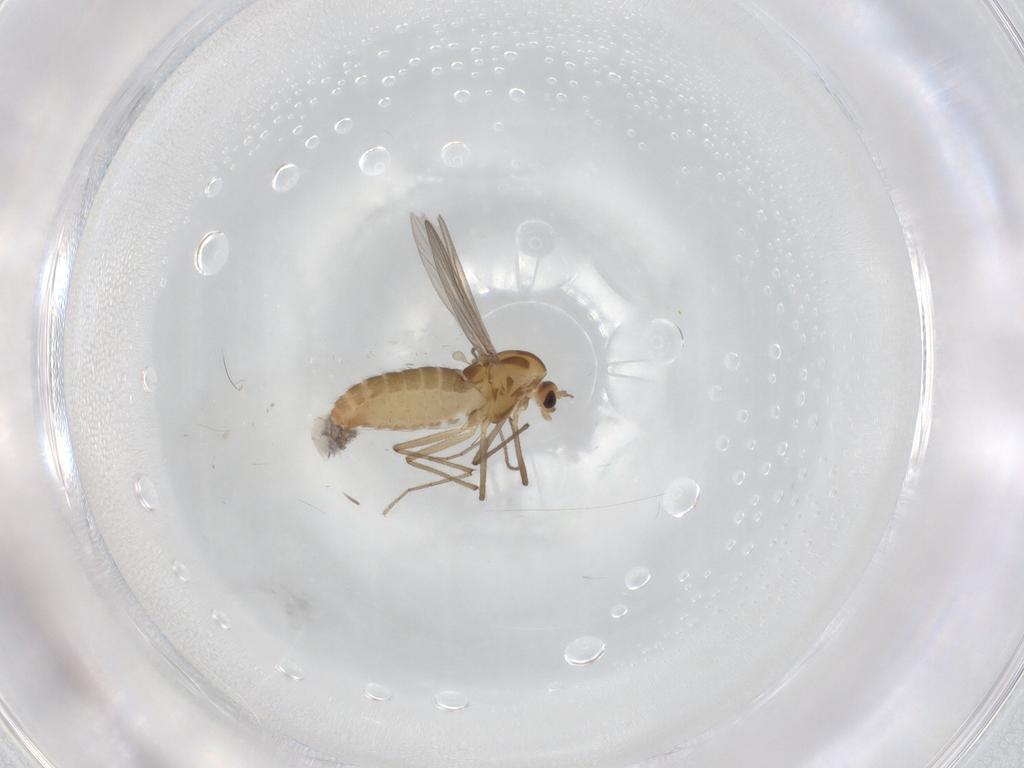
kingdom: Animalia
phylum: Arthropoda
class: Insecta
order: Diptera
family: Chironomidae
